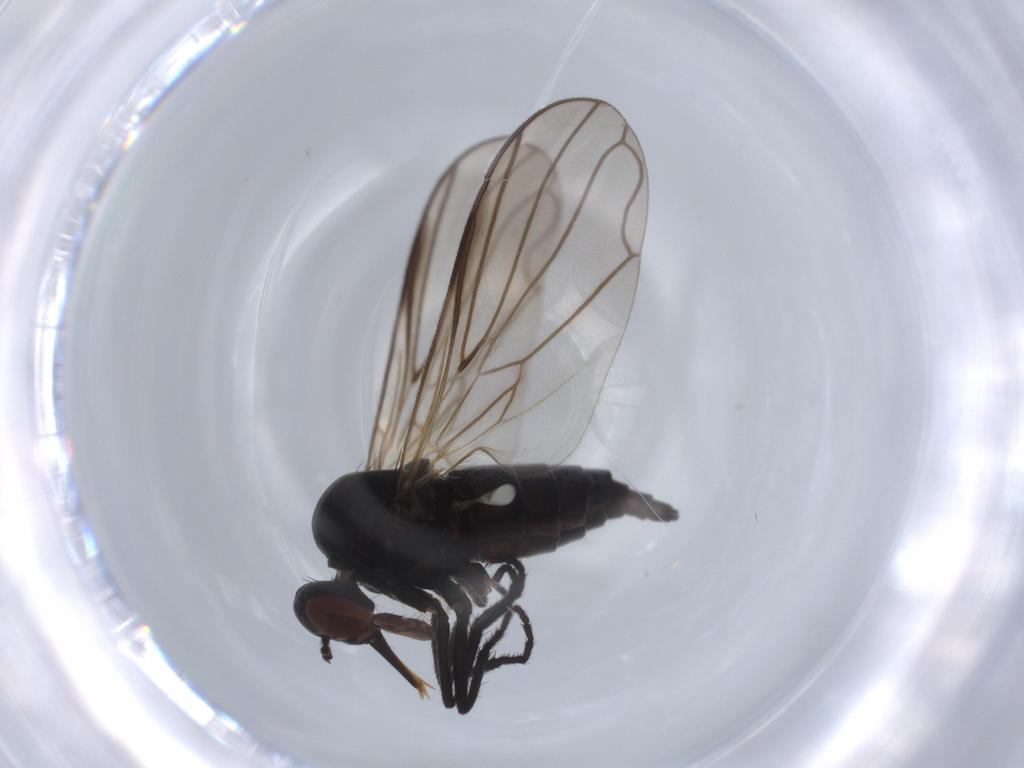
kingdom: Animalia
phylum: Arthropoda
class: Insecta
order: Diptera
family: Empididae
